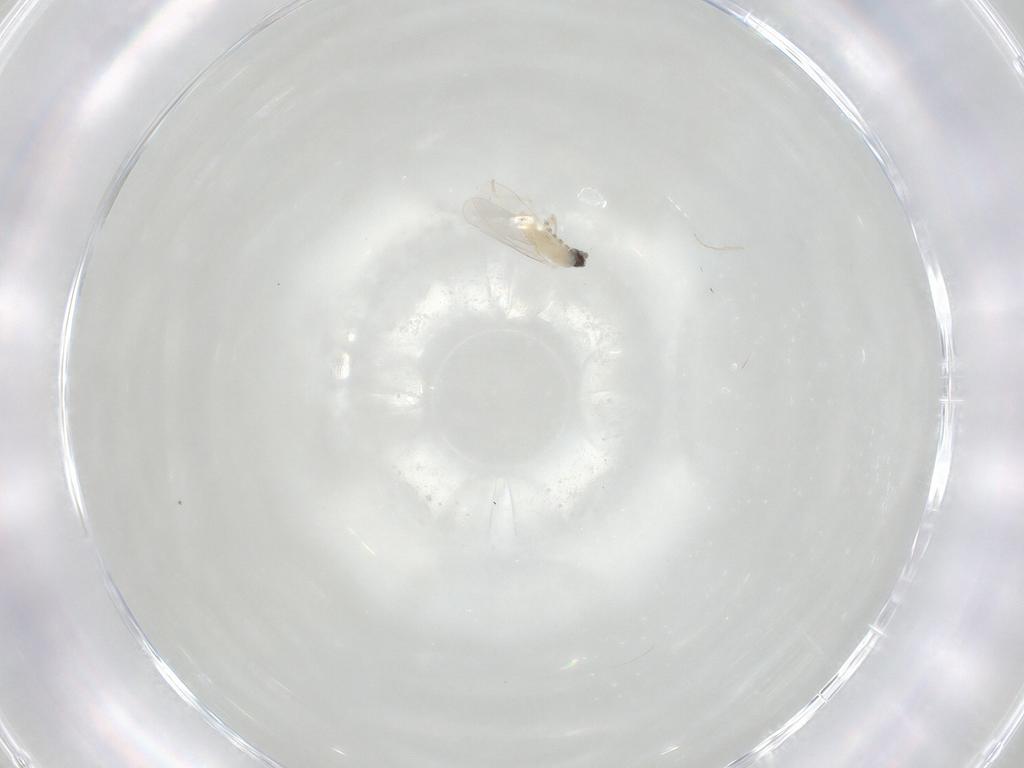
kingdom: Animalia
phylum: Arthropoda
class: Insecta
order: Diptera
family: Cecidomyiidae
